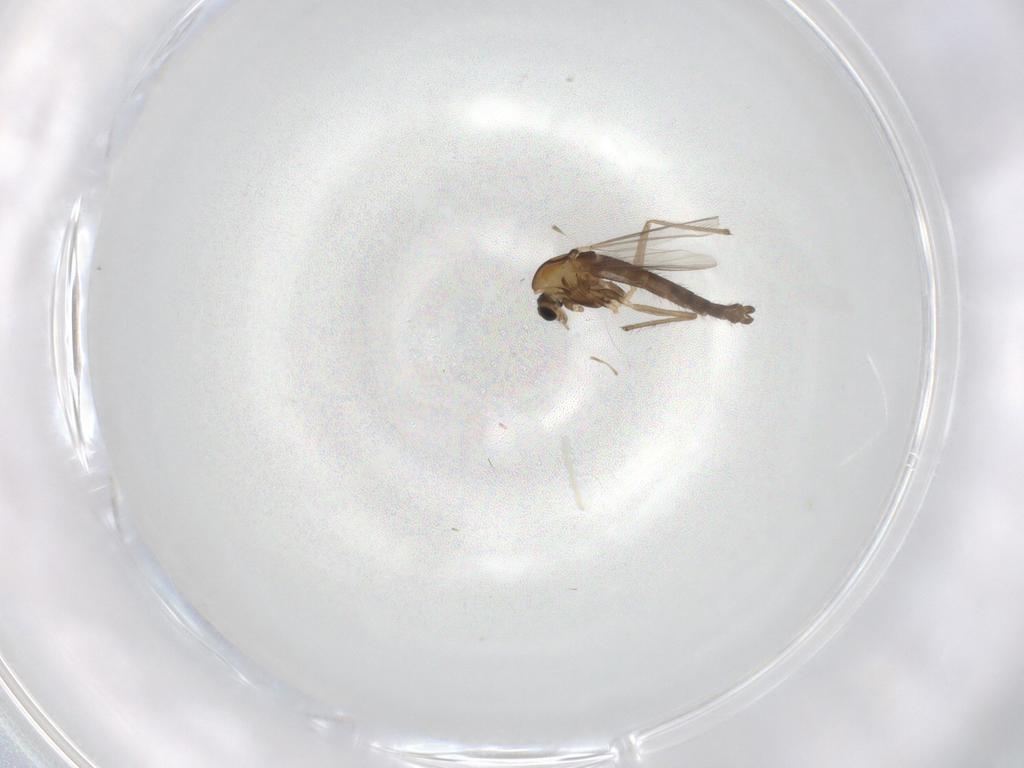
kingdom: Animalia
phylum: Arthropoda
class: Insecta
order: Diptera
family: Chironomidae
